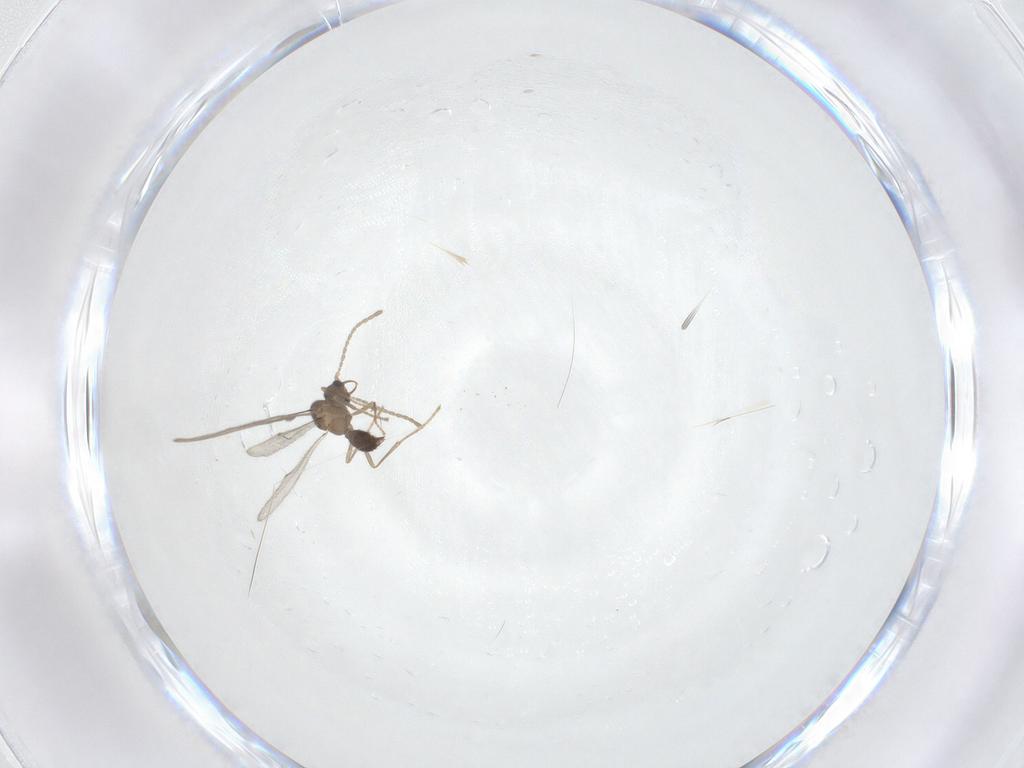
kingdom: Animalia
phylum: Arthropoda
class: Insecta
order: Hymenoptera
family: Formicidae
